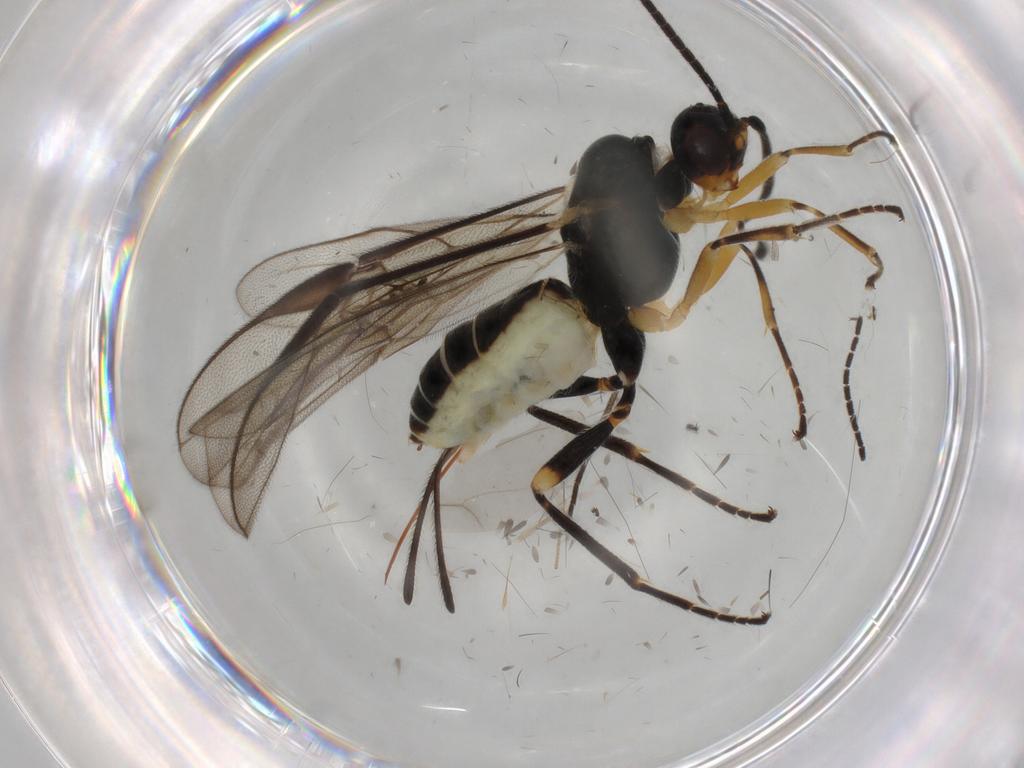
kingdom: Animalia
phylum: Arthropoda
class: Insecta
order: Hymenoptera
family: Braconidae
